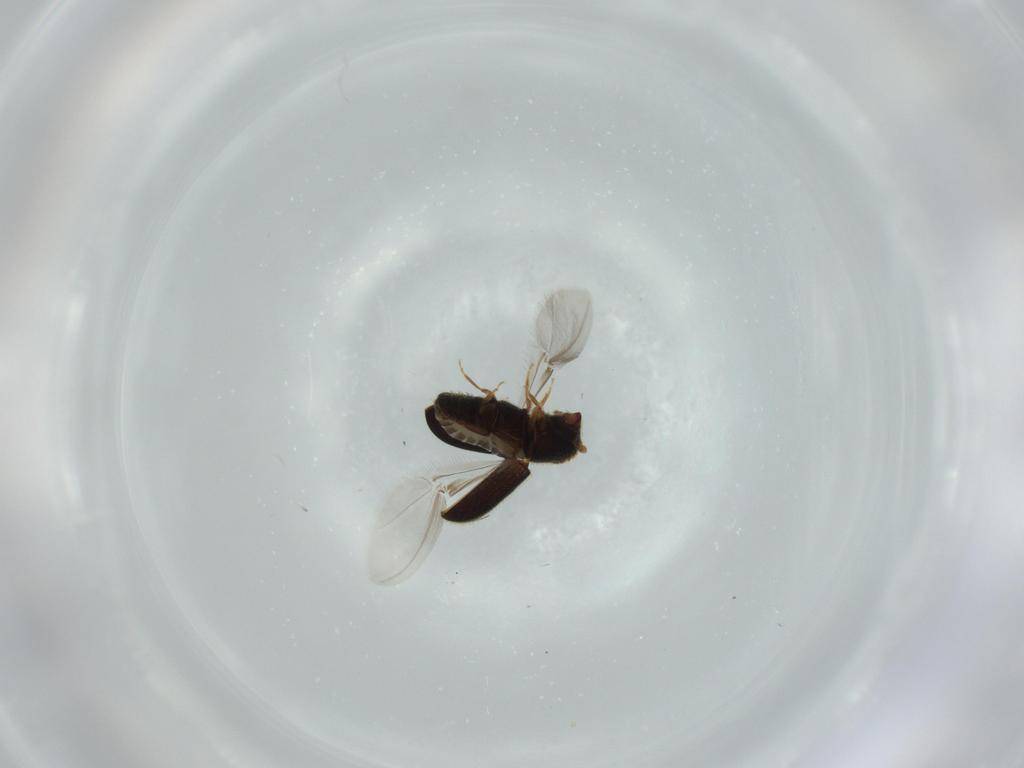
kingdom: Animalia
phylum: Arthropoda
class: Insecta
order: Coleoptera
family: Curculionidae
